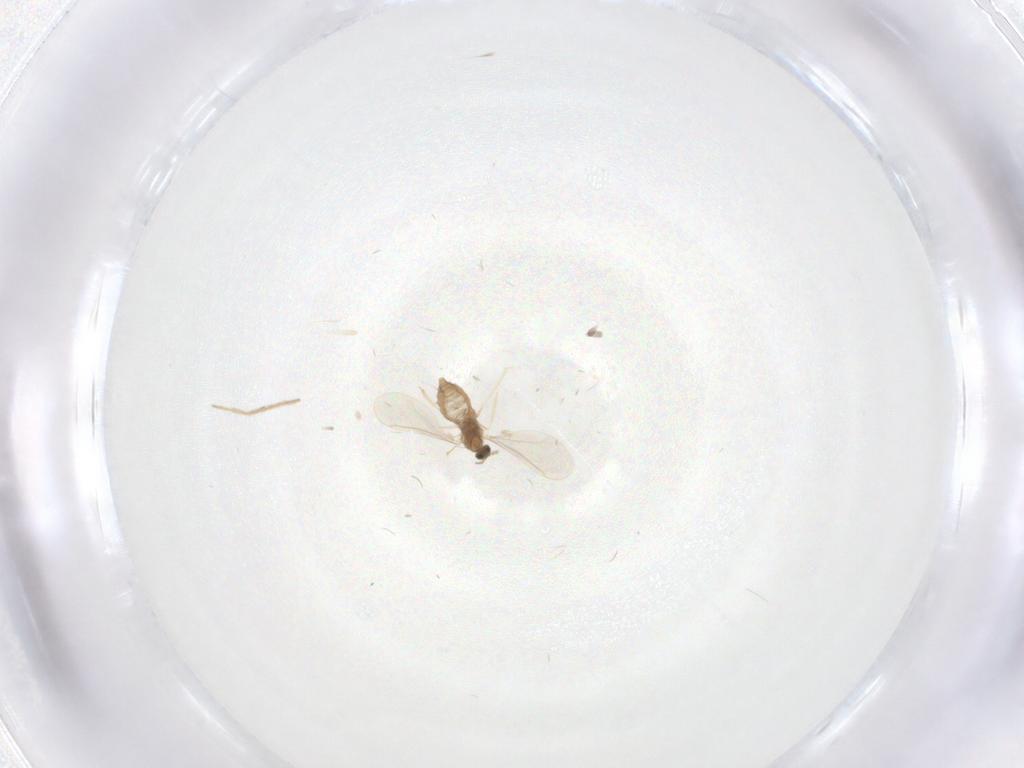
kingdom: Animalia
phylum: Arthropoda
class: Insecta
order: Diptera
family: Cecidomyiidae
